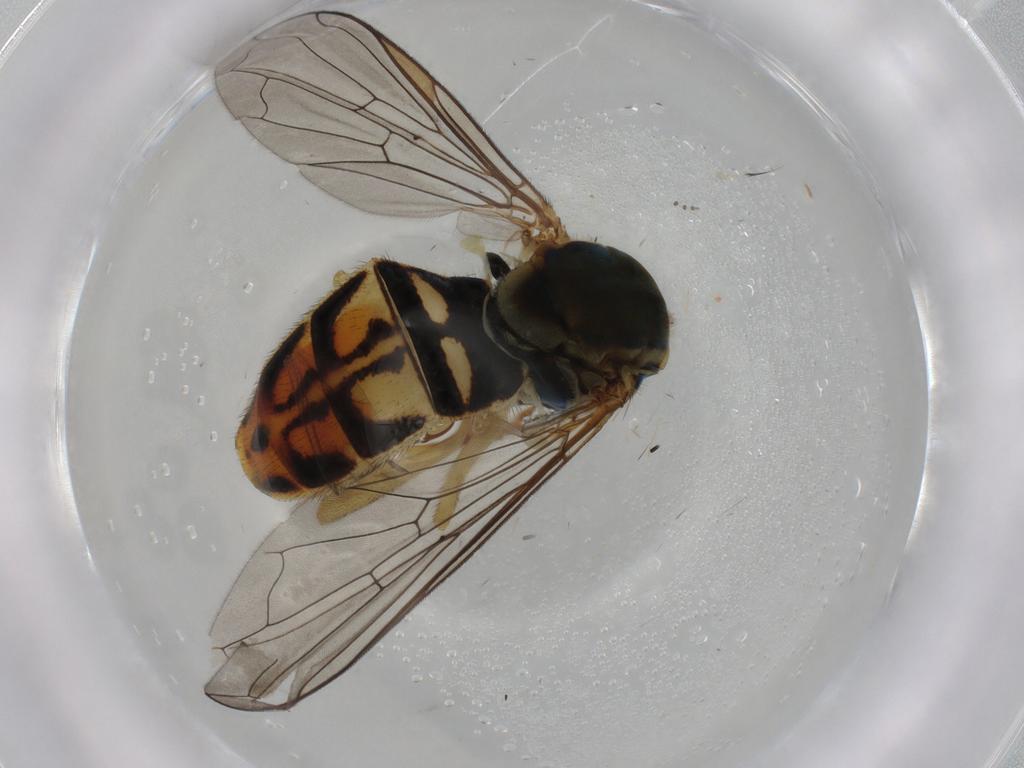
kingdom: Animalia
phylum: Arthropoda
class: Insecta
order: Diptera
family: Syrphidae
